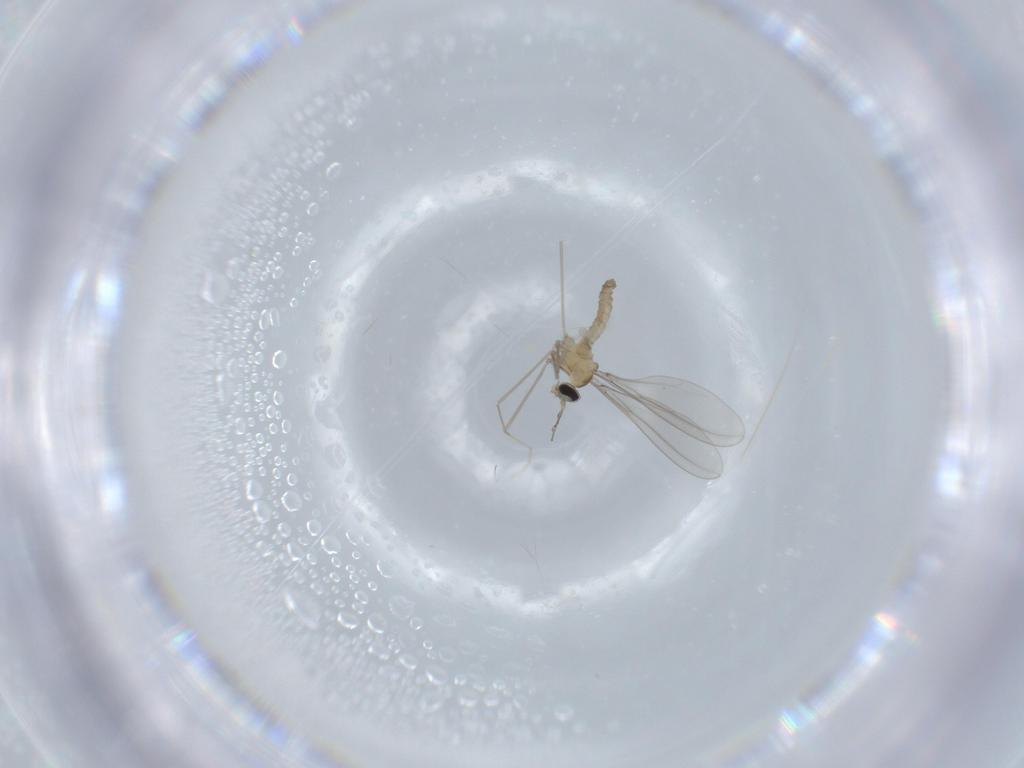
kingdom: Animalia
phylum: Arthropoda
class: Insecta
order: Diptera
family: Cecidomyiidae
